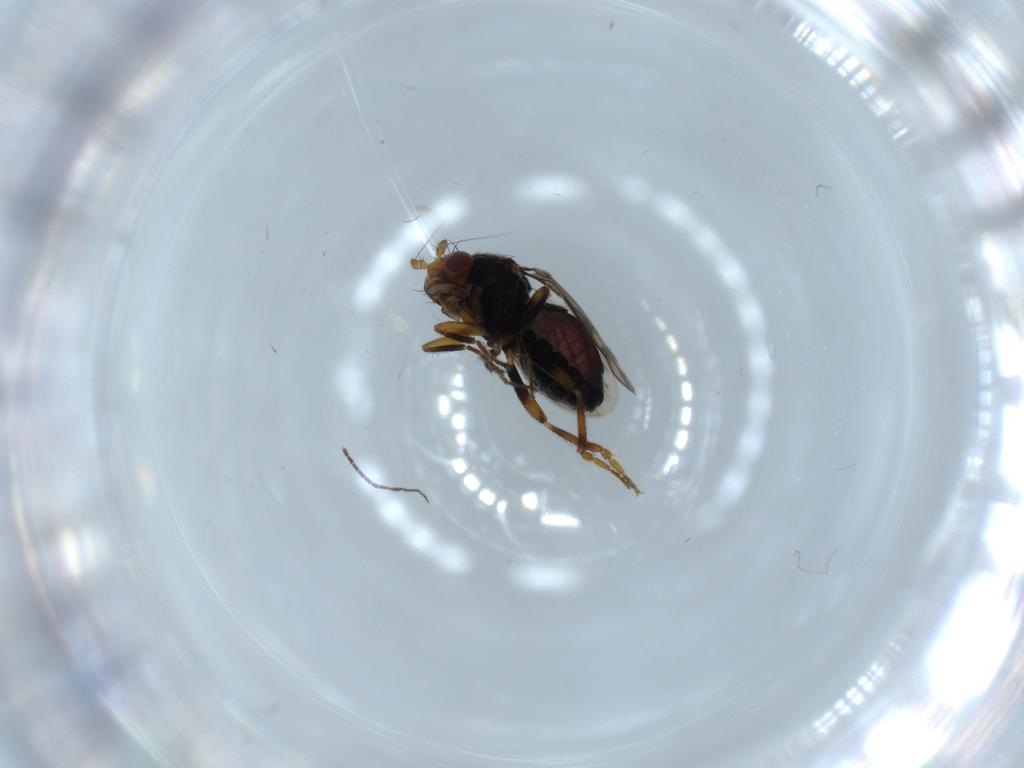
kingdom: Animalia
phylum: Arthropoda
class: Insecta
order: Diptera
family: Sphaeroceridae
